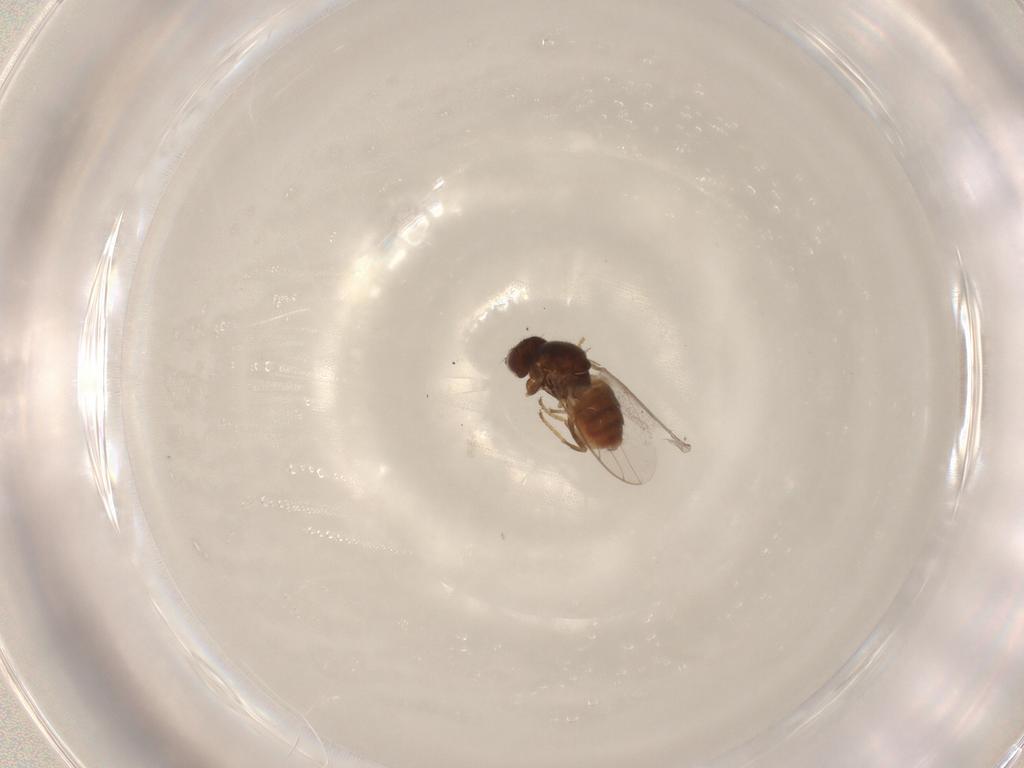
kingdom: Animalia
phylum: Arthropoda
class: Insecta
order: Diptera
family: Chloropidae
